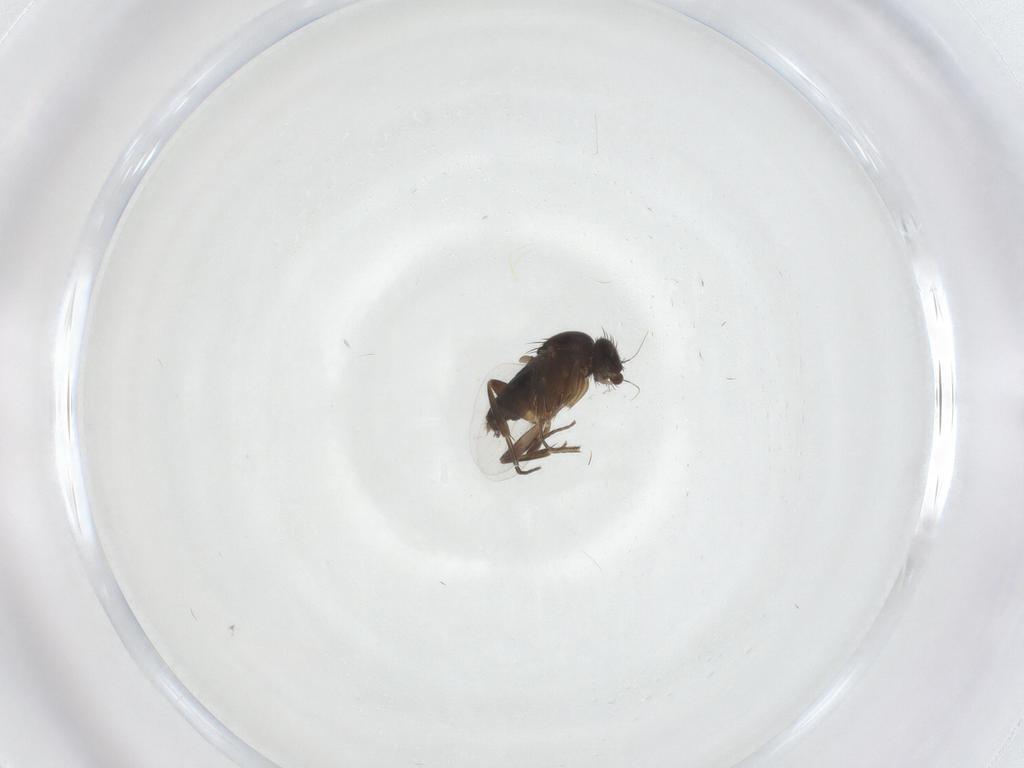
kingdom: Animalia
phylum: Arthropoda
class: Insecta
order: Diptera
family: Phoridae
